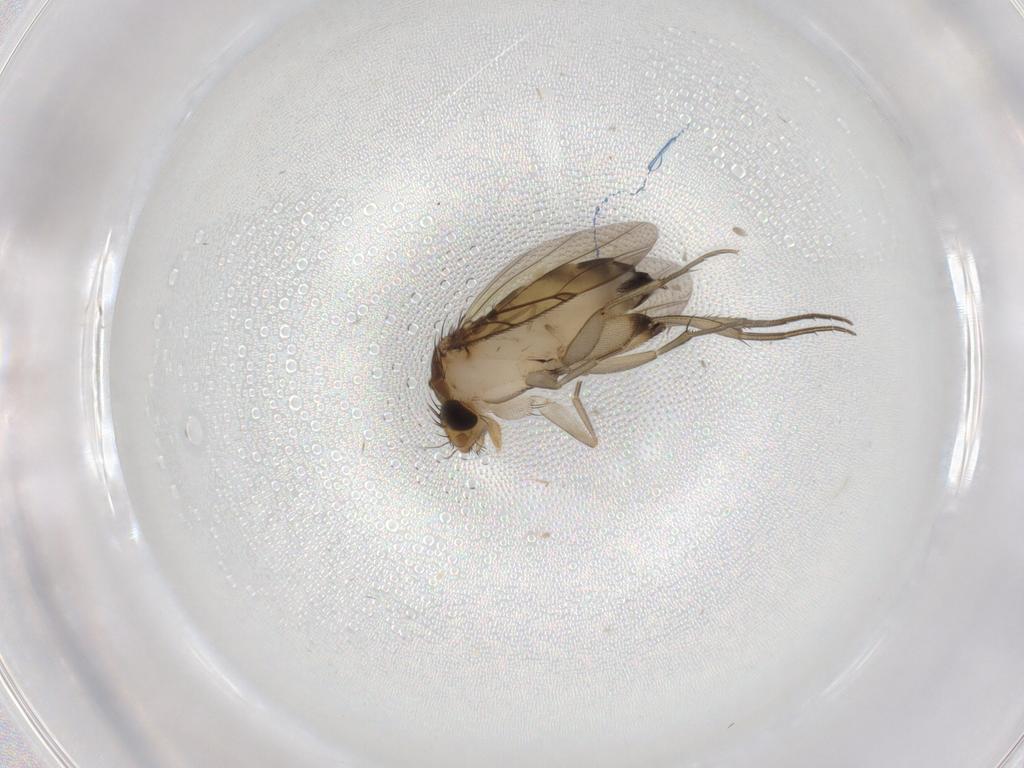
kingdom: Animalia
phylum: Arthropoda
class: Insecta
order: Diptera
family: Phoridae
